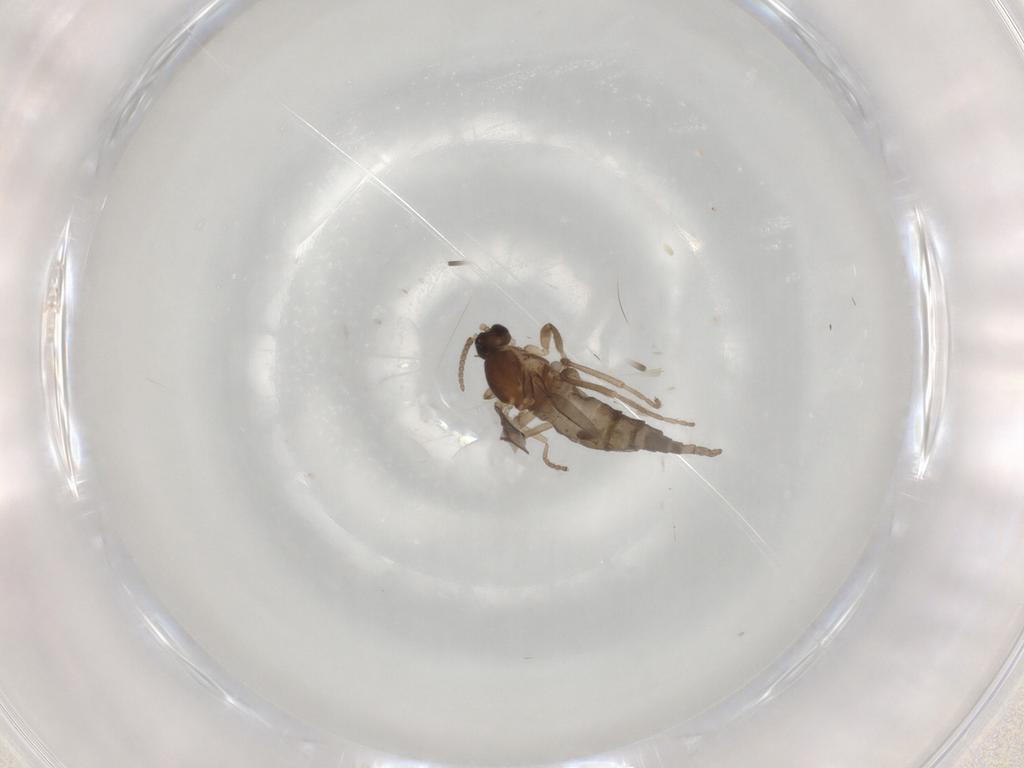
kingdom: Animalia
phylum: Arthropoda
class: Insecta
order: Diptera
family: Cecidomyiidae
